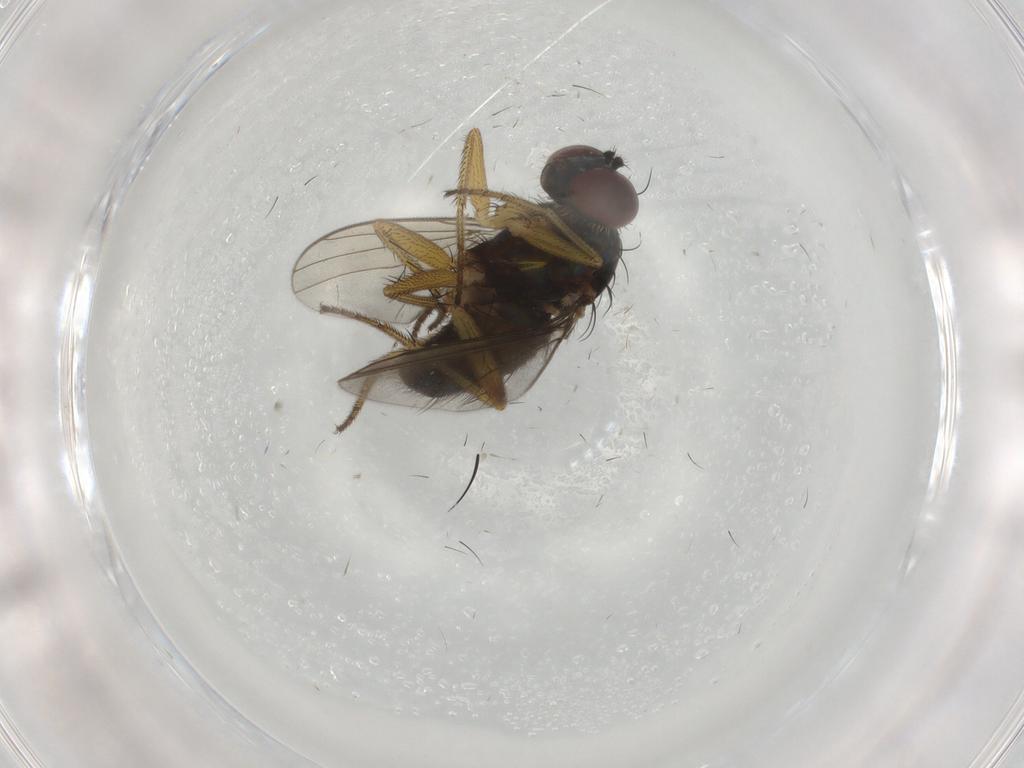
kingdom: Animalia
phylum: Arthropoda
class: Insecta
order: Diptera
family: Dolichopodidae
